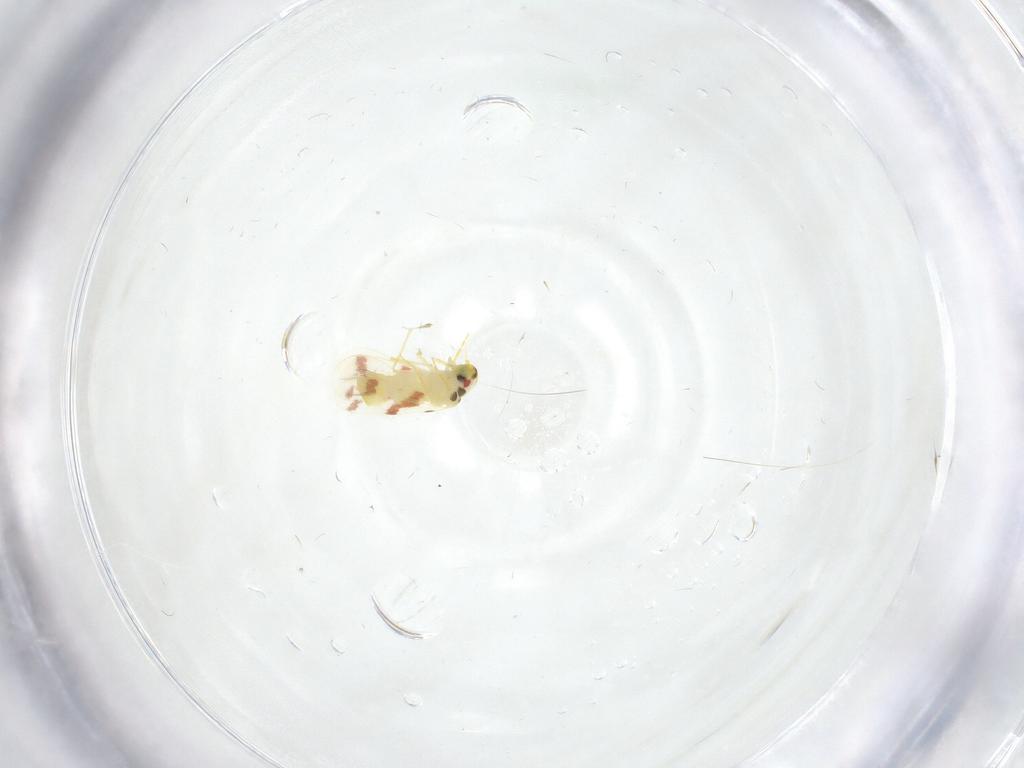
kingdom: Animalia
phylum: Arthropoda
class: Insecta
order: Hemiptera
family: Aleyrodidae
